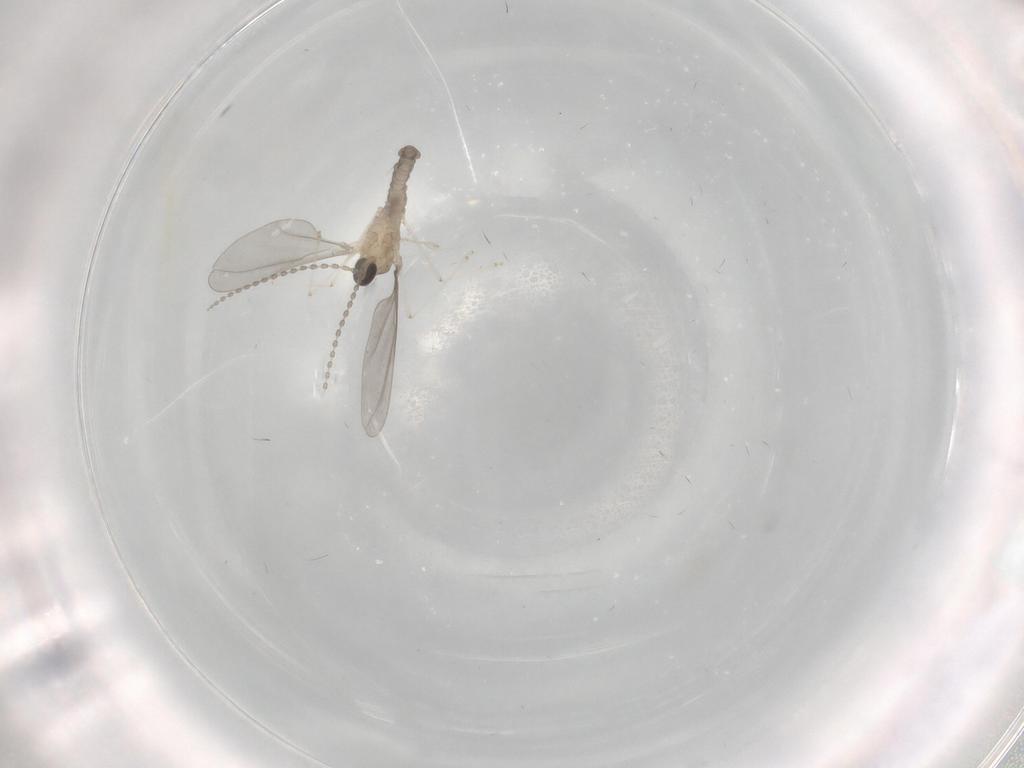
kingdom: Animalia
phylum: Arthropoda
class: Insecta
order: Diptera
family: Cecidomyiidae
